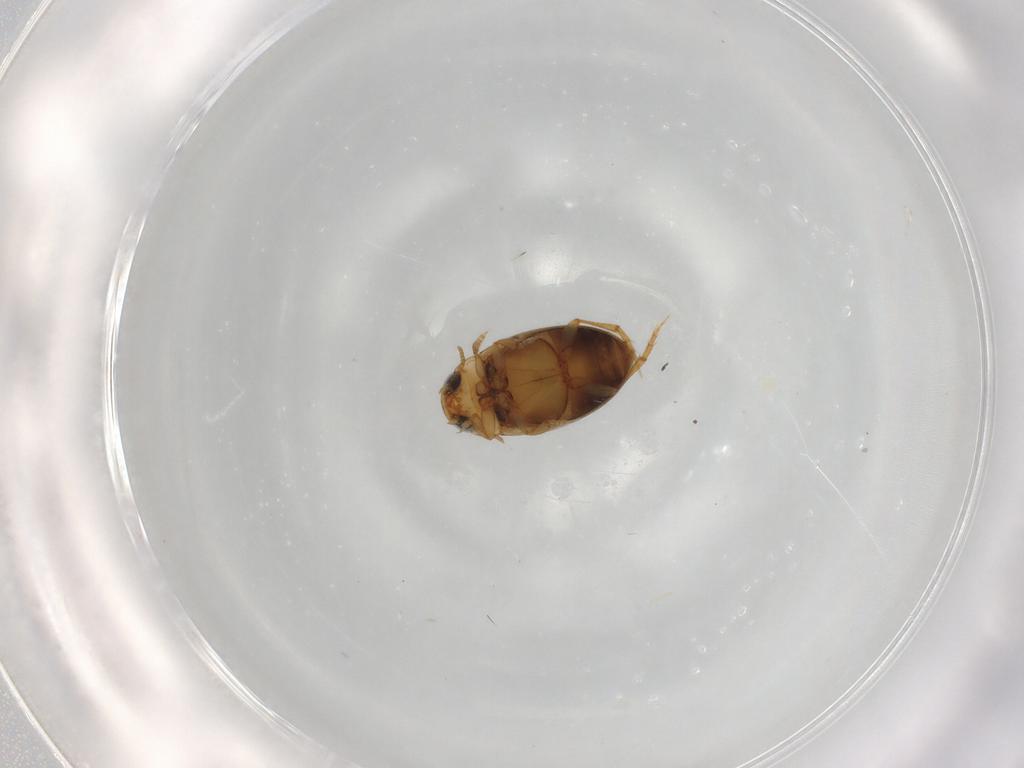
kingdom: Animalia
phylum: Arthropoda
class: Insecta
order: Coleoptera
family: Dytiscidae
